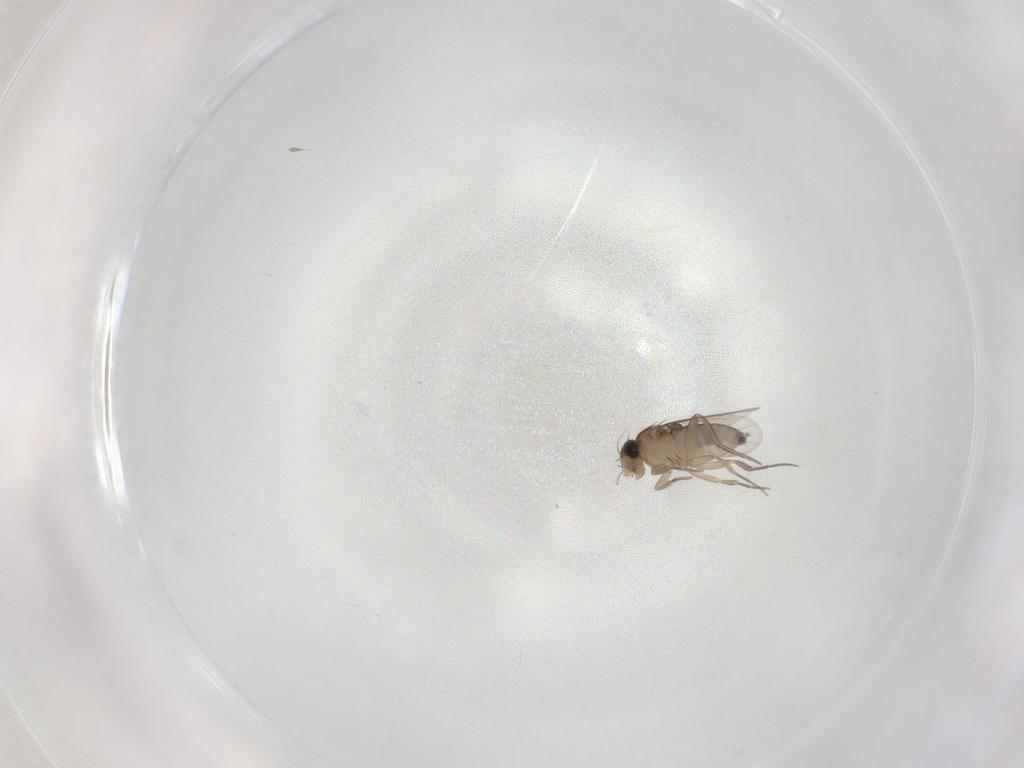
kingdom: Animalia
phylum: Arthropoda
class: Insecta
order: Diptera
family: Phoridae
